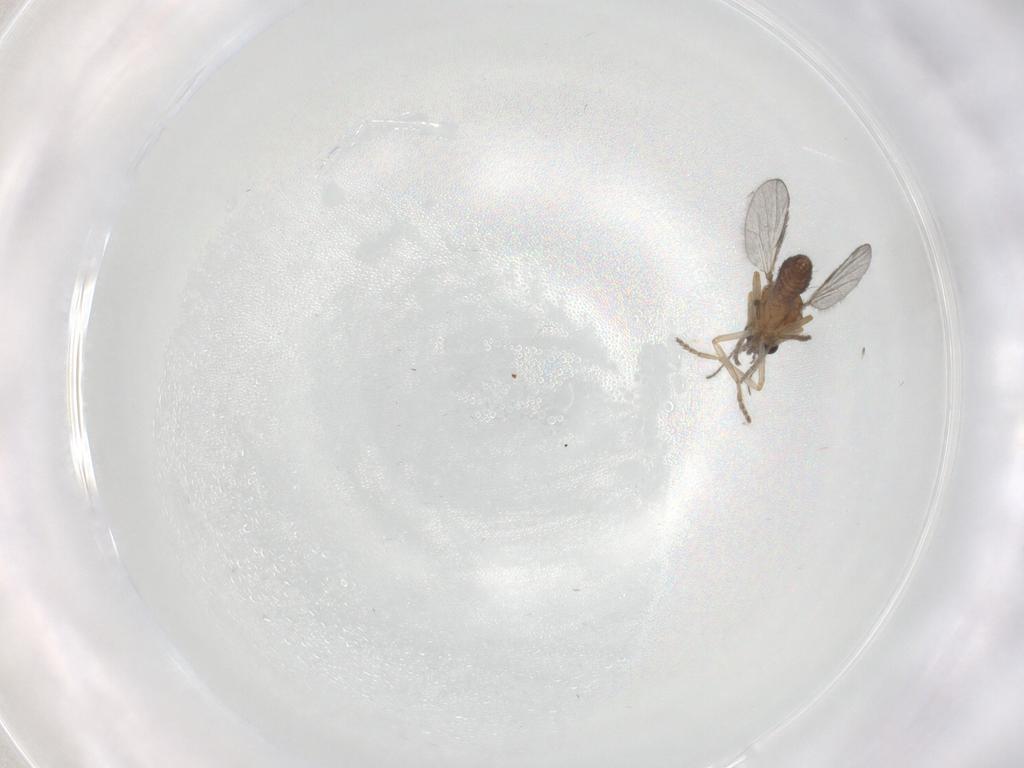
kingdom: Animalia
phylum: Arthropoda
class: Insecta
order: Diptera
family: Ceratopogonidae
